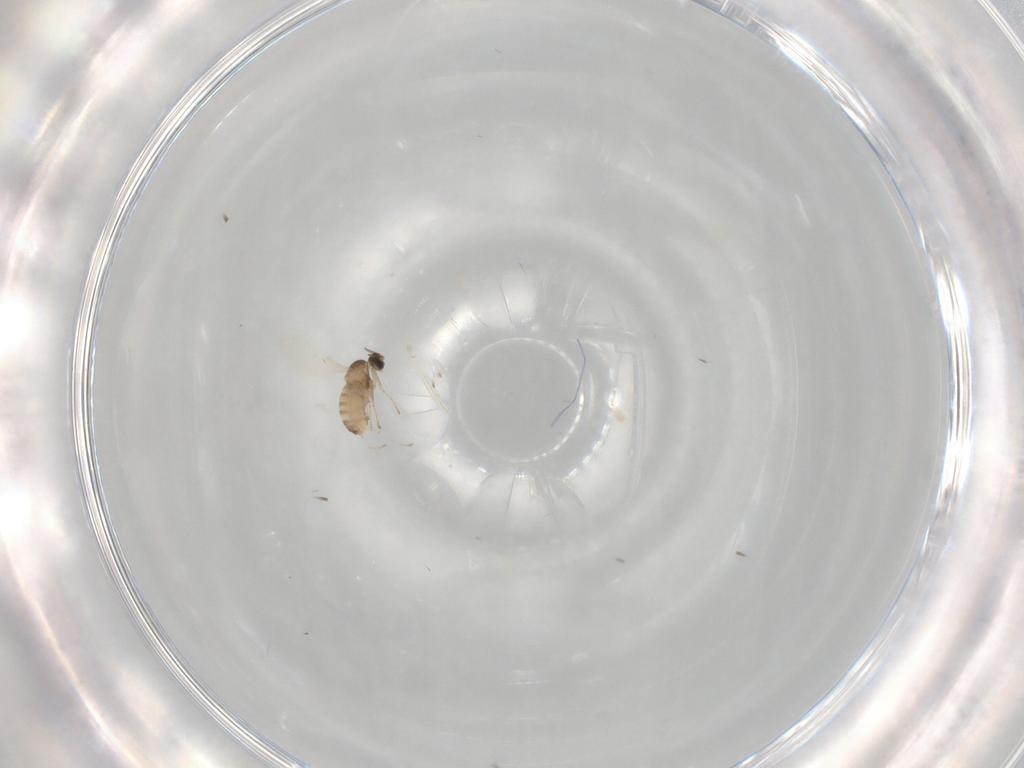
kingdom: Animalia
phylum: Arthropoda
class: Insecta
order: Diptera
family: Cecidomyiidae
